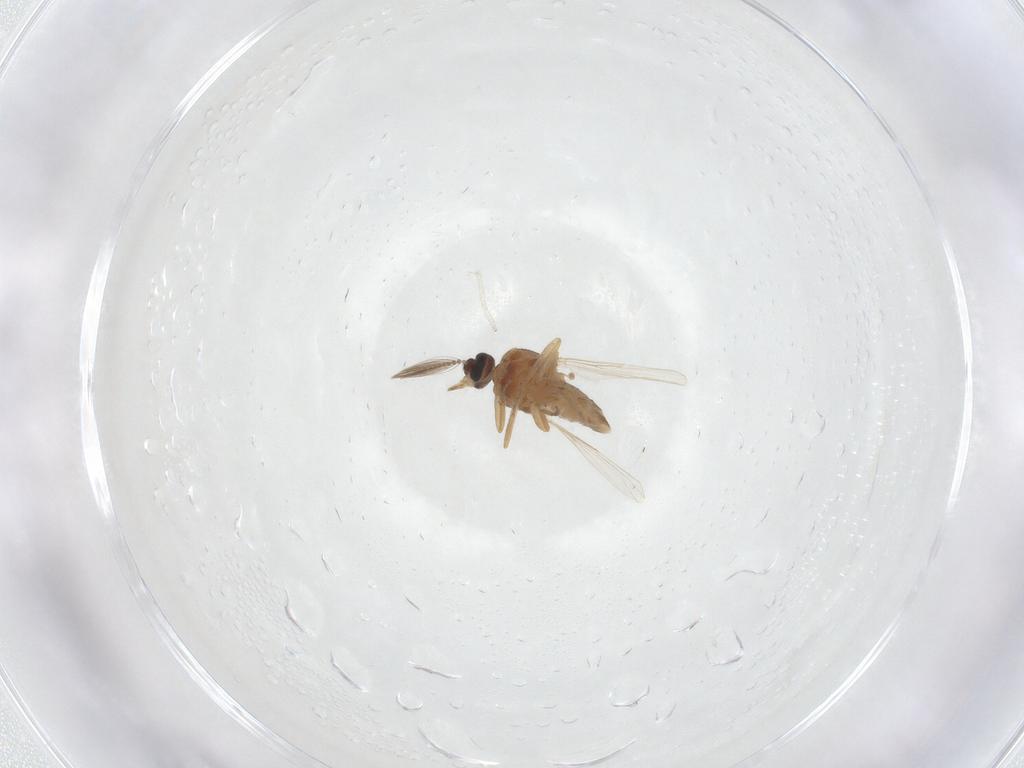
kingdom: Animalia
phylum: Arthropoda
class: Insecta
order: Diptera
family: Ceratopogonidae
